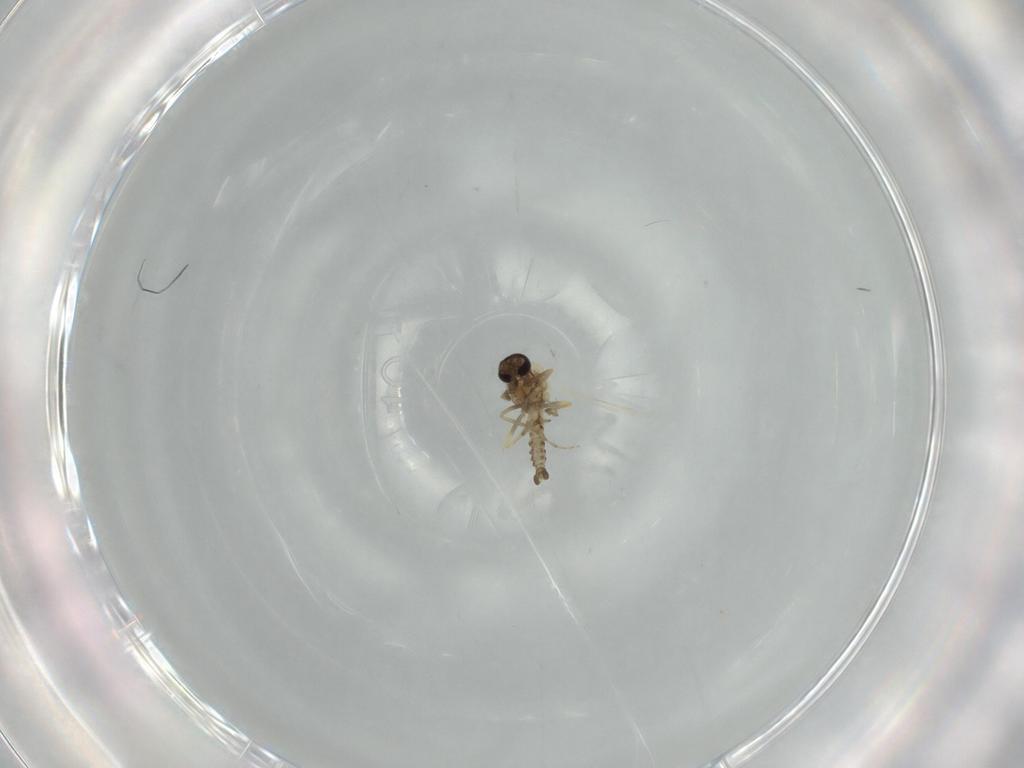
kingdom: Animalia
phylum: Arthropoda
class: Insecta
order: Diptera
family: Ceratopogonidae
